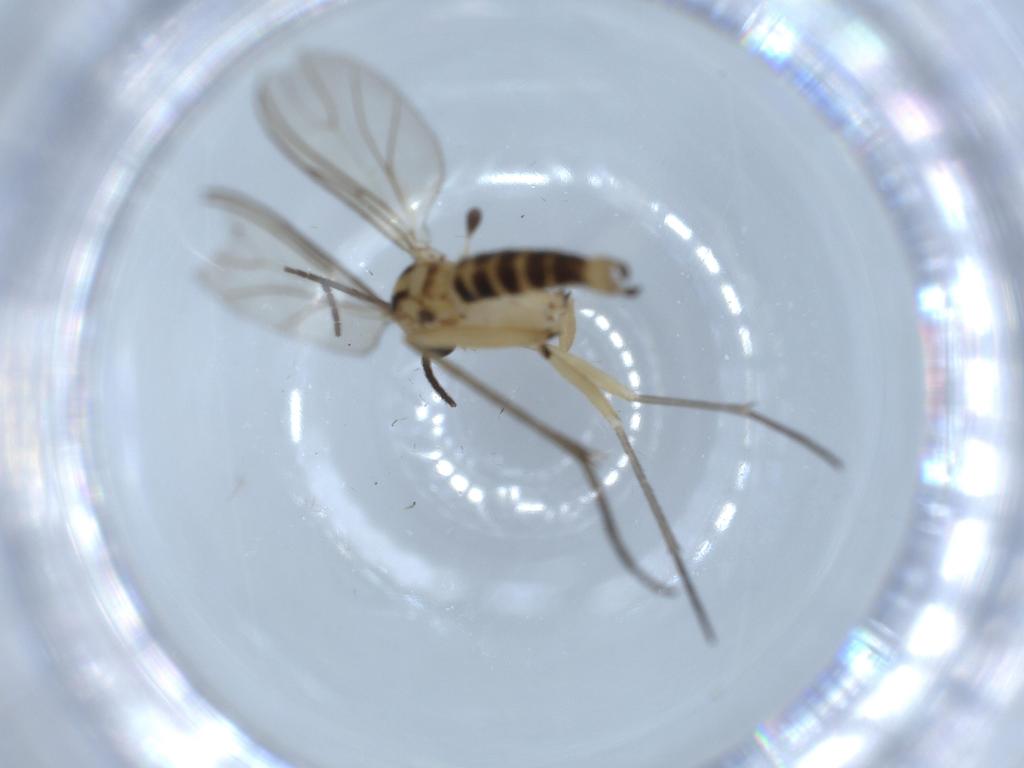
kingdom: Animalia
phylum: Arthropoda
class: Insecta
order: Diptera
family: Sciaridae
